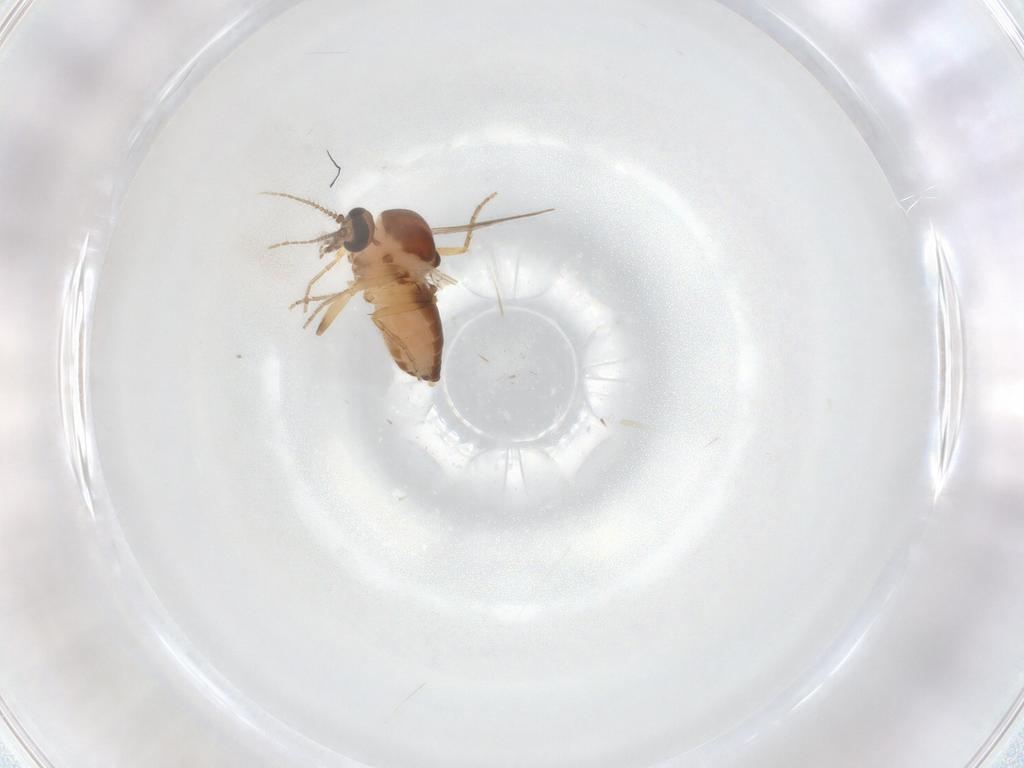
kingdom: Animalia
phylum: Arthropoda
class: Insecta
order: Diptera
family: Ceratopogonidae
